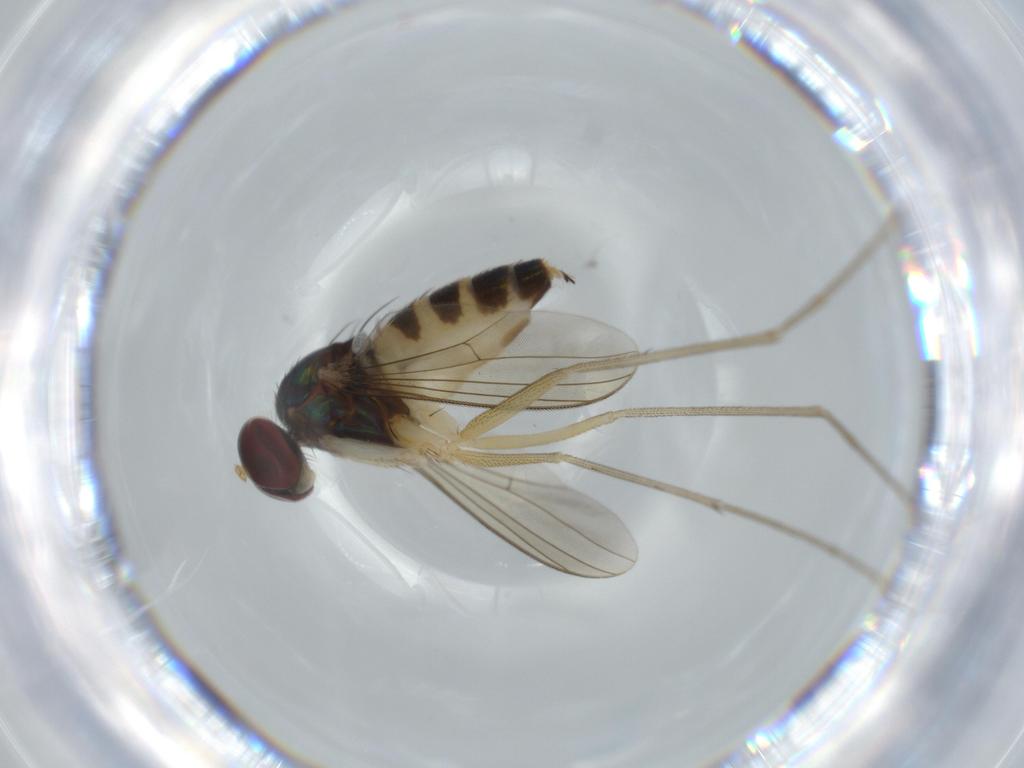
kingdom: Animalia
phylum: Arthropoda
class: Insecta
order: Diptera
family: Dolichopodidae
